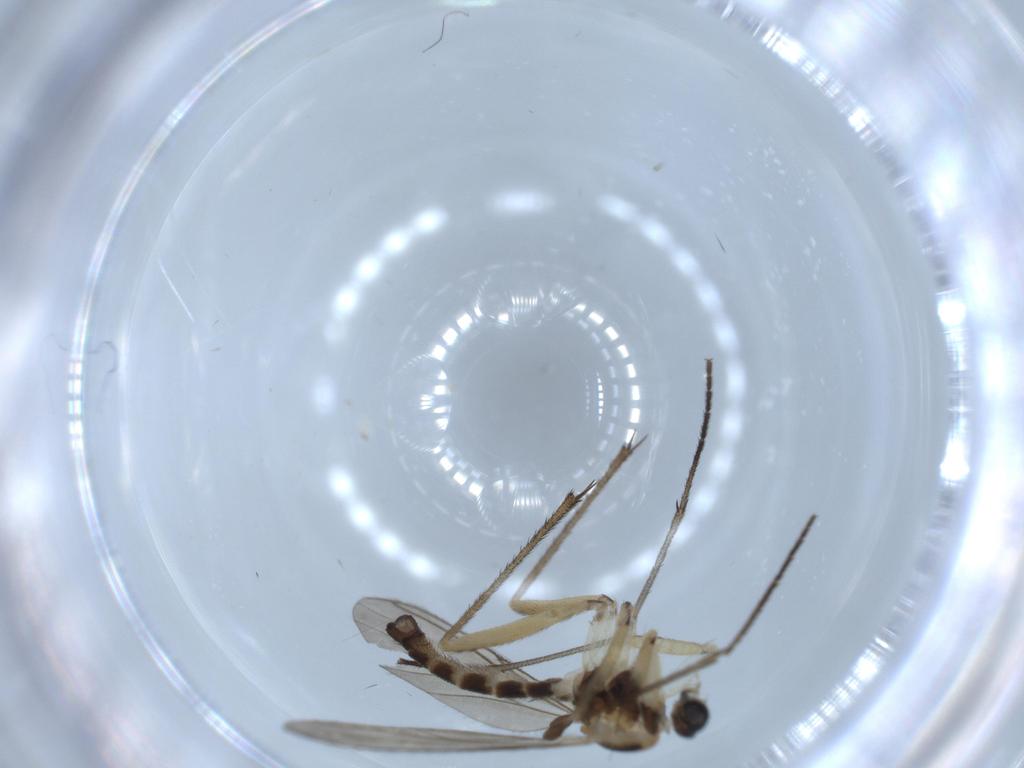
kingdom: Animalia
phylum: Arthropoda
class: Insecta
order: Diptera
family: Sciaridae
